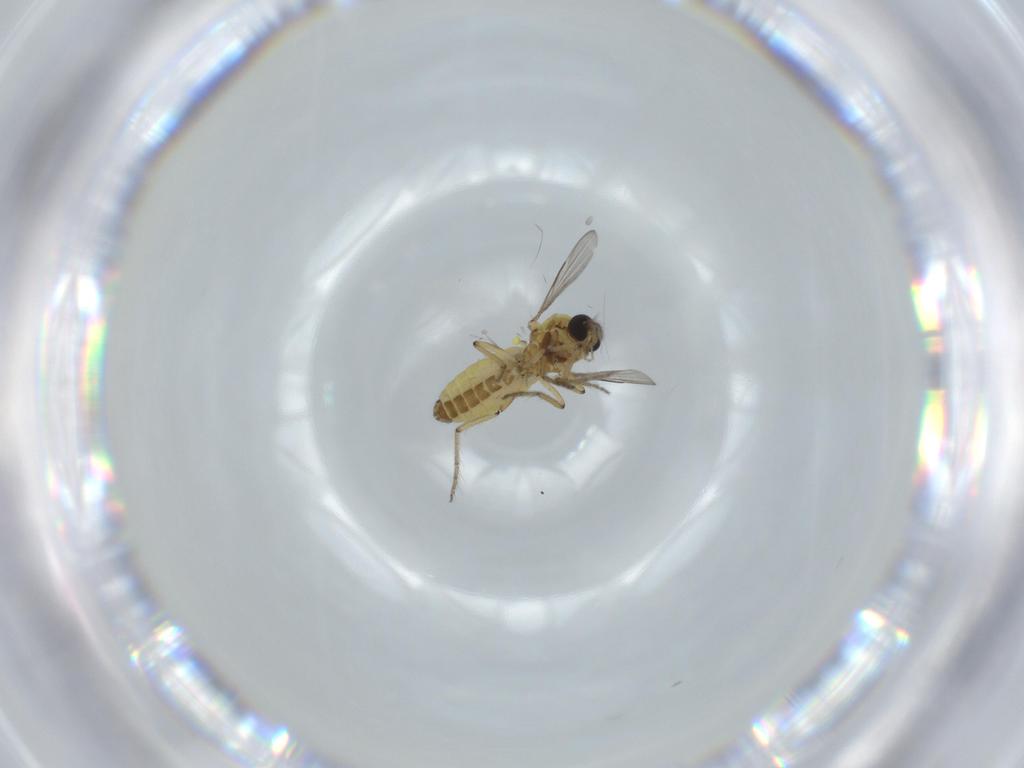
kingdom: Animalia
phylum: Arthropoda
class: Insecta
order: Diptera
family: Ceratopogonidae
